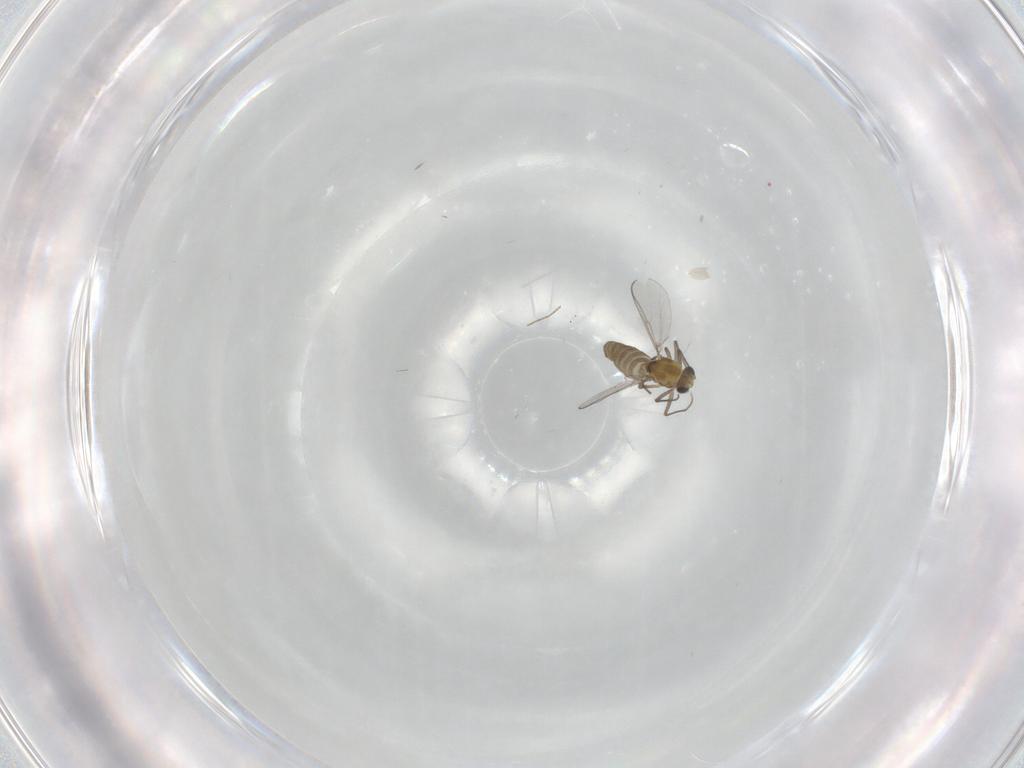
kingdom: Animalia
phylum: Arthropoda
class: Insecta
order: Diptera
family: Chironomidae
